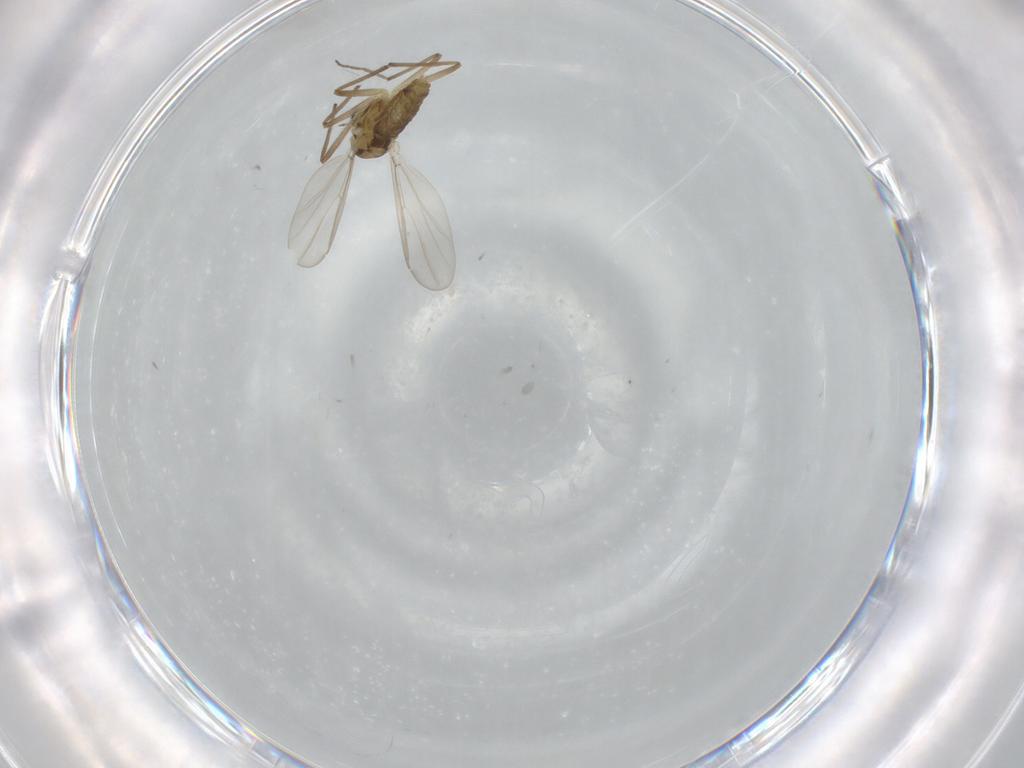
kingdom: Animalia
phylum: Arthropoda
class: Insecta
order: Diptera
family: Chironomidae
